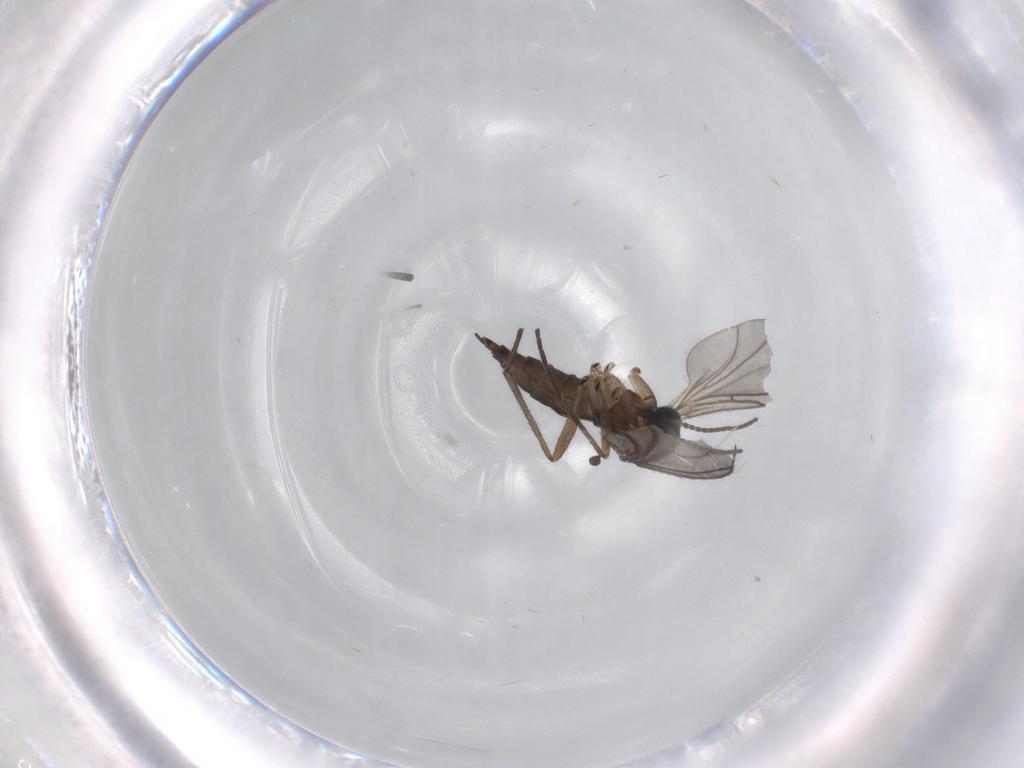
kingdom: Animalia
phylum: Arthropoda
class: Insecta
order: Diptera
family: Sciaridae
